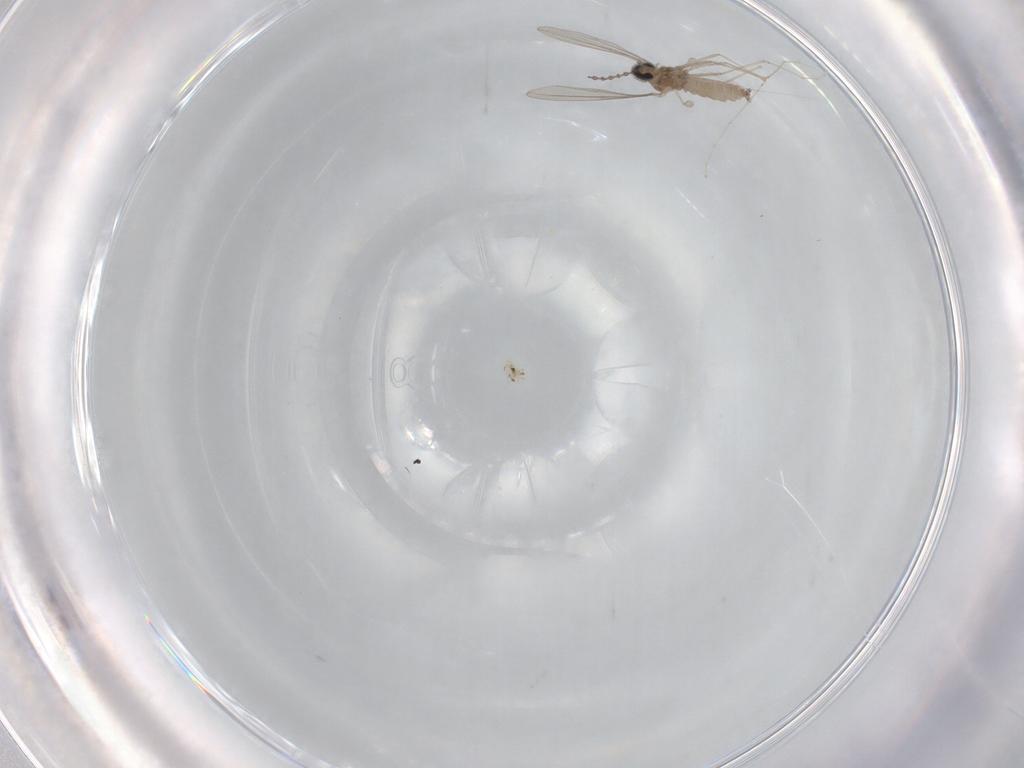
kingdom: Animalia
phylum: Arthropoda
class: Insecta
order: Diptera
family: Cecidomyiidae
